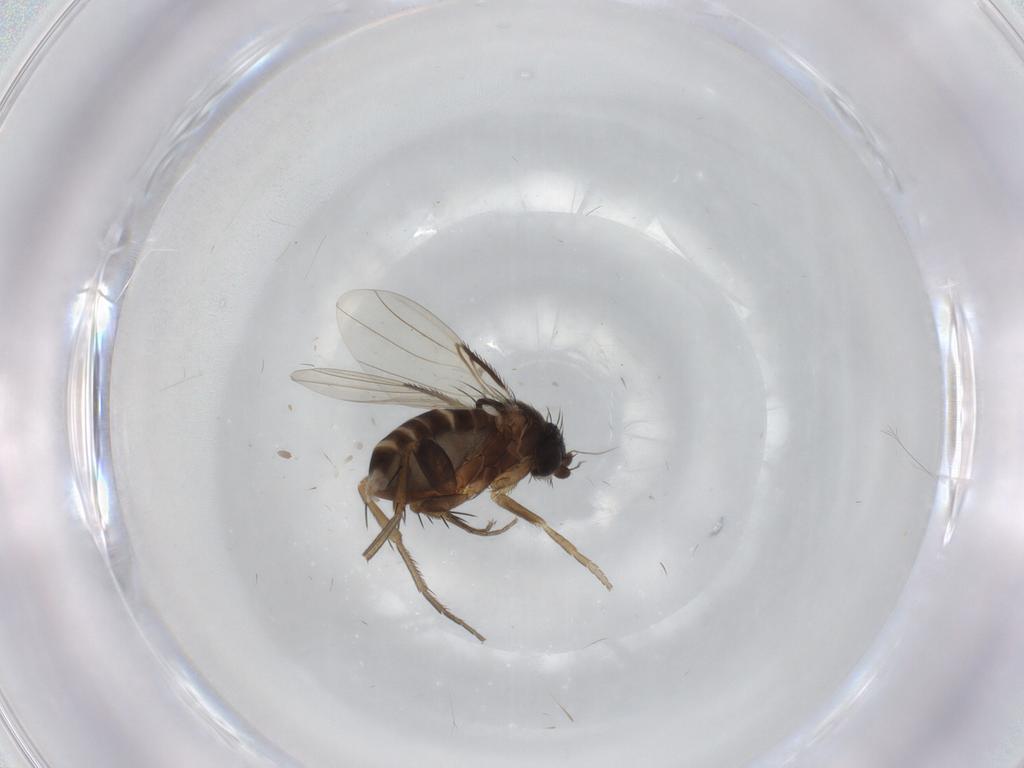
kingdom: Animalia
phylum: Arthropoda
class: Insecta
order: Diptera
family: Phoridae
